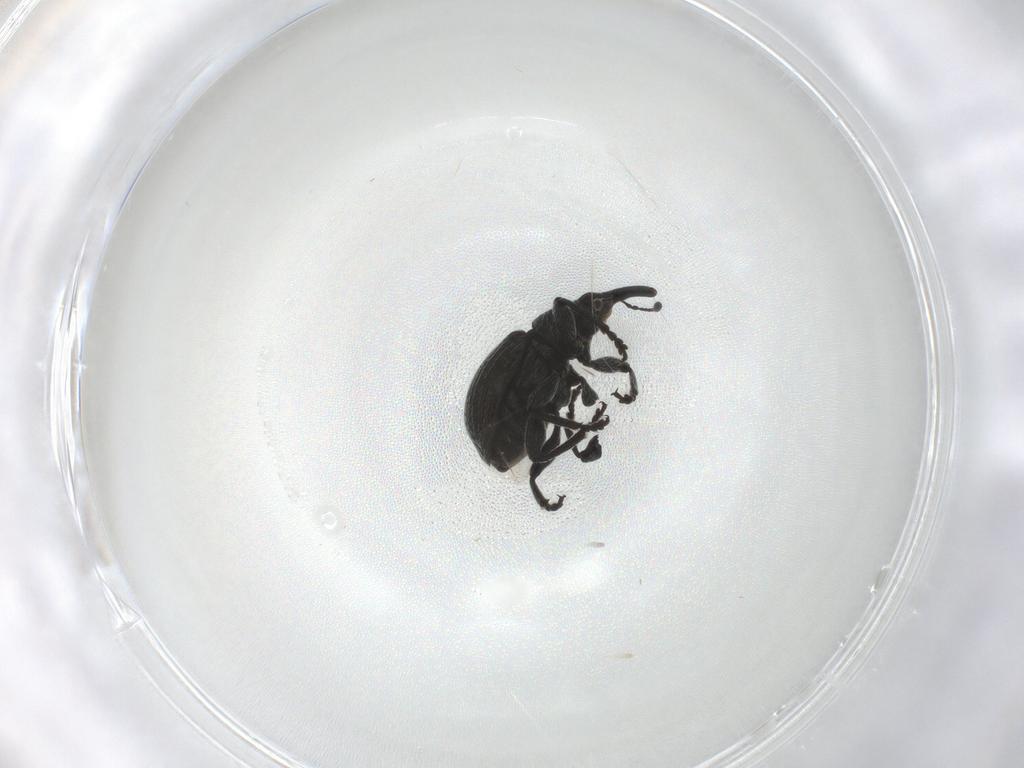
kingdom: Animalia
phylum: Arthropoda
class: Insecta
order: Coleoptera
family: Brentidae
